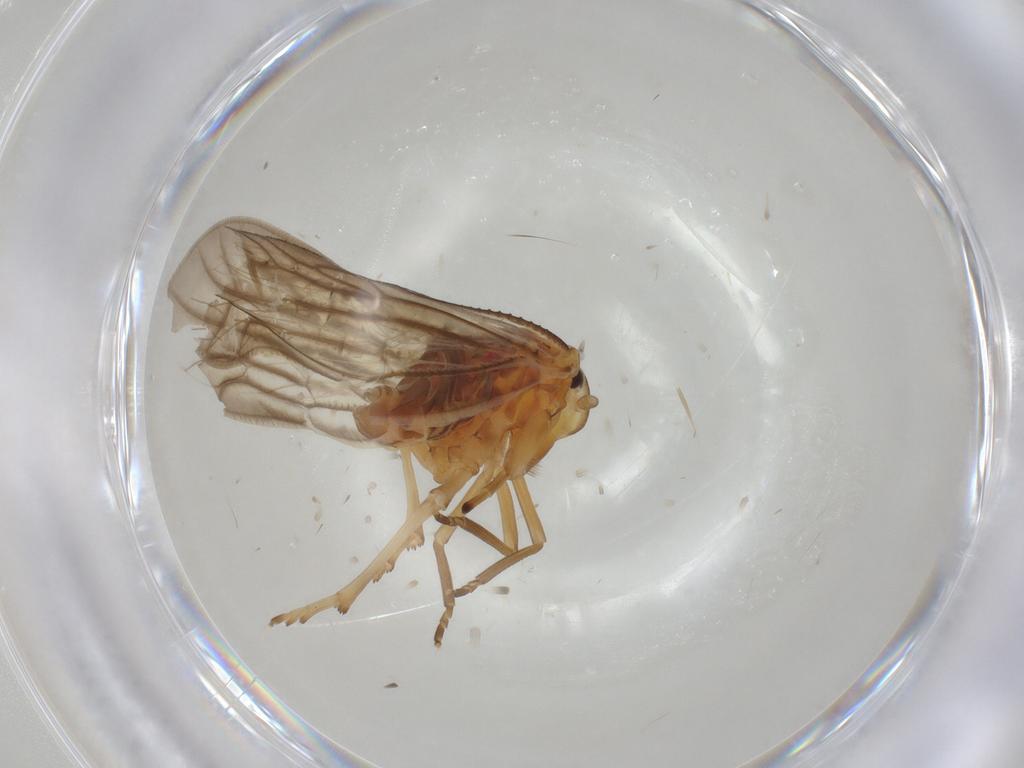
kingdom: Animalia
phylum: Arthropoda
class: Insecta
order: Hemiptera
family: Meenoplidae
